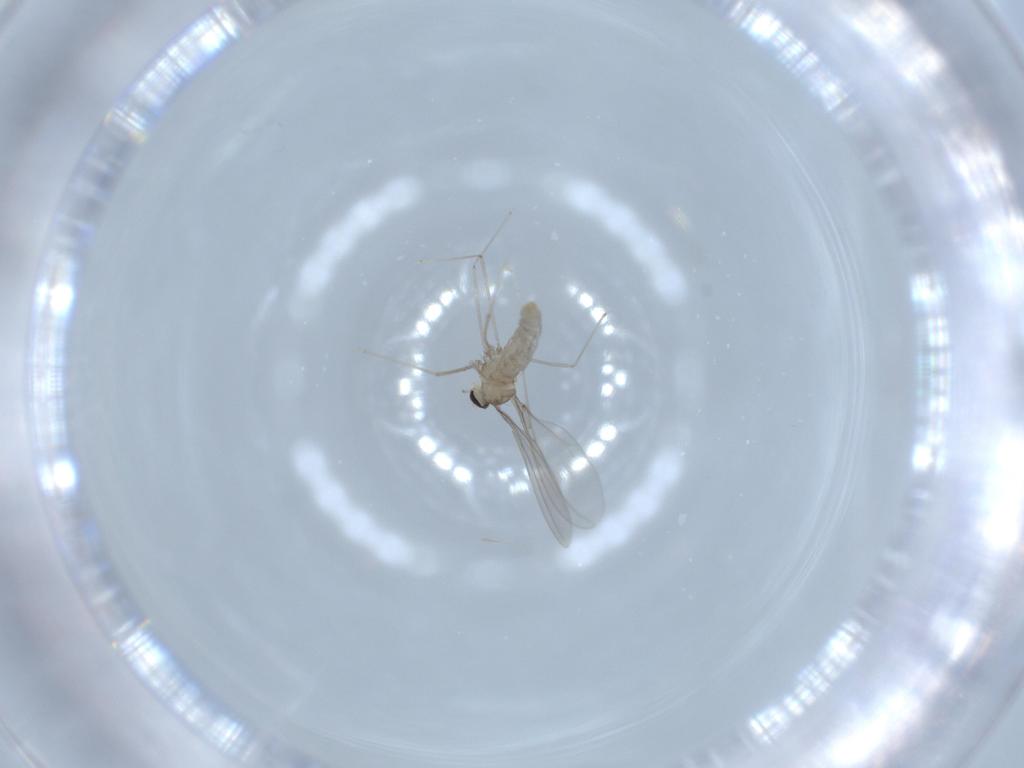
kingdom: Animalia
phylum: Arthropoda
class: Insecta
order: Diptera
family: Cecidomyiidae
